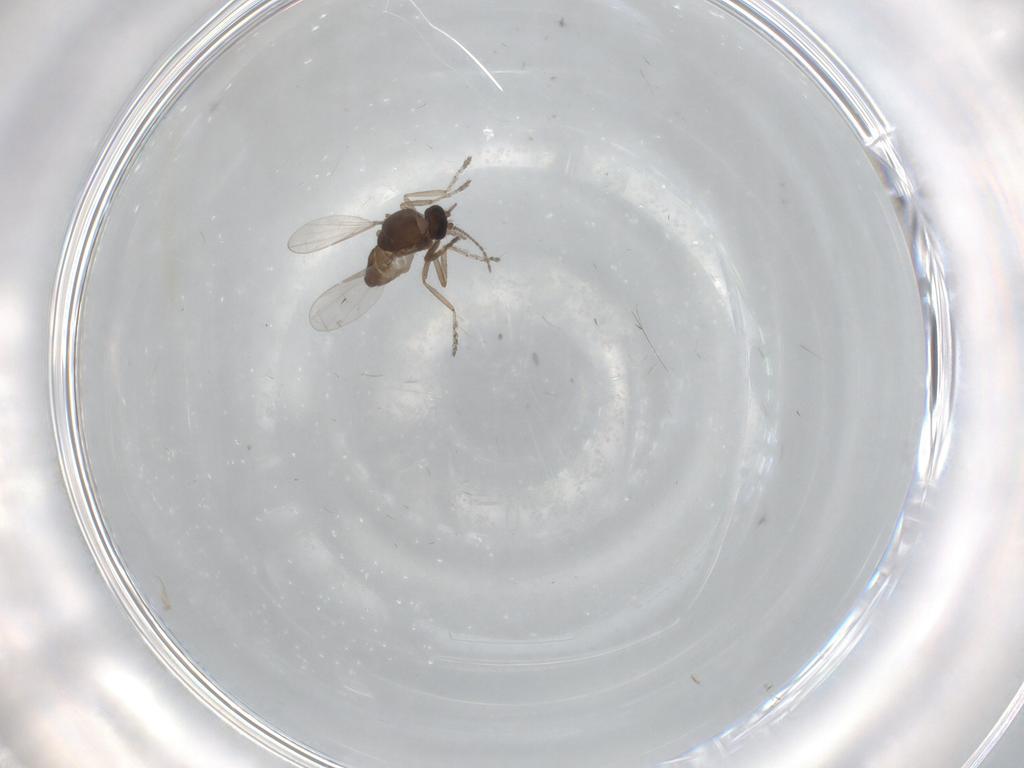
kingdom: Animalia
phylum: Arthropoda
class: Insecta
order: Diptera
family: Ceratopogonidae
